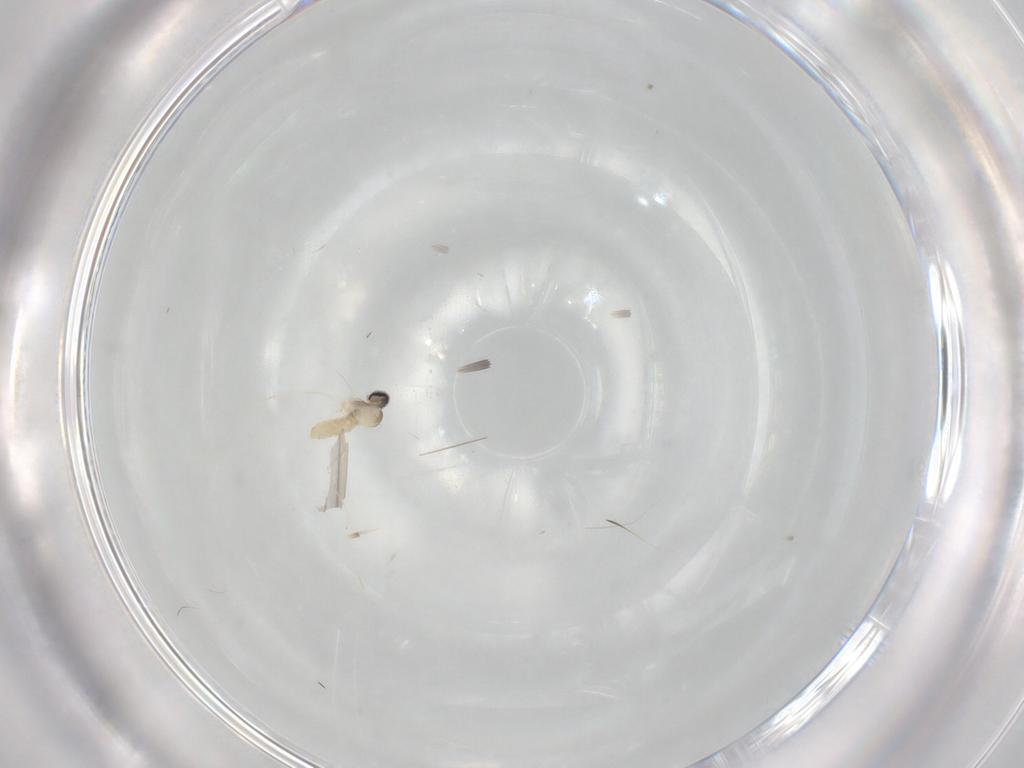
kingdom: Animalia
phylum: Arthropoda
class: Insecta
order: Diptera
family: Cecidomyiidae
